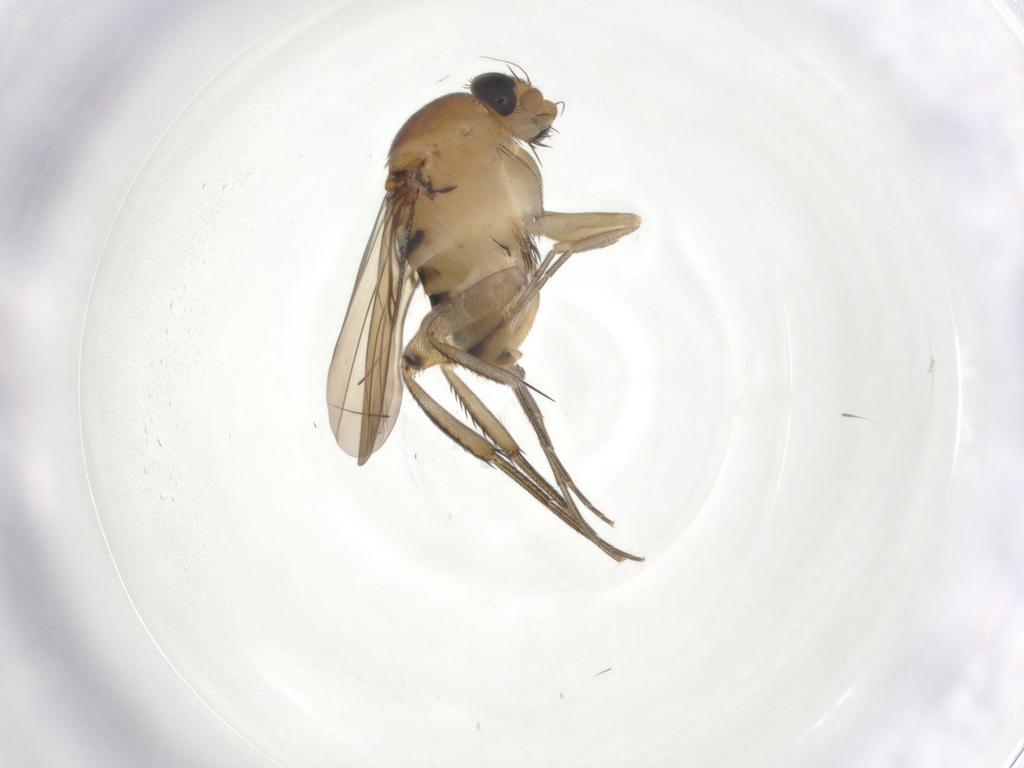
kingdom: Animalia
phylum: Arthropoda
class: Insecta
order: Diptera
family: Phoridae
